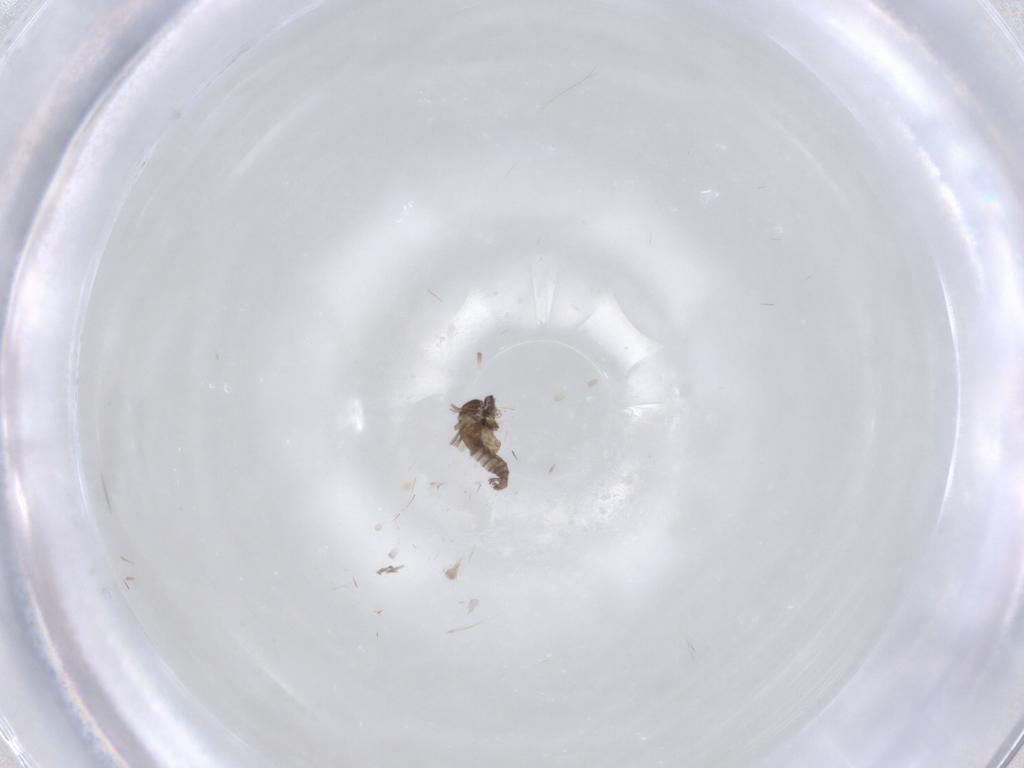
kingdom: Animalia
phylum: Arthropoda
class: Insecta
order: Diptera
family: Cecidomyiidae
